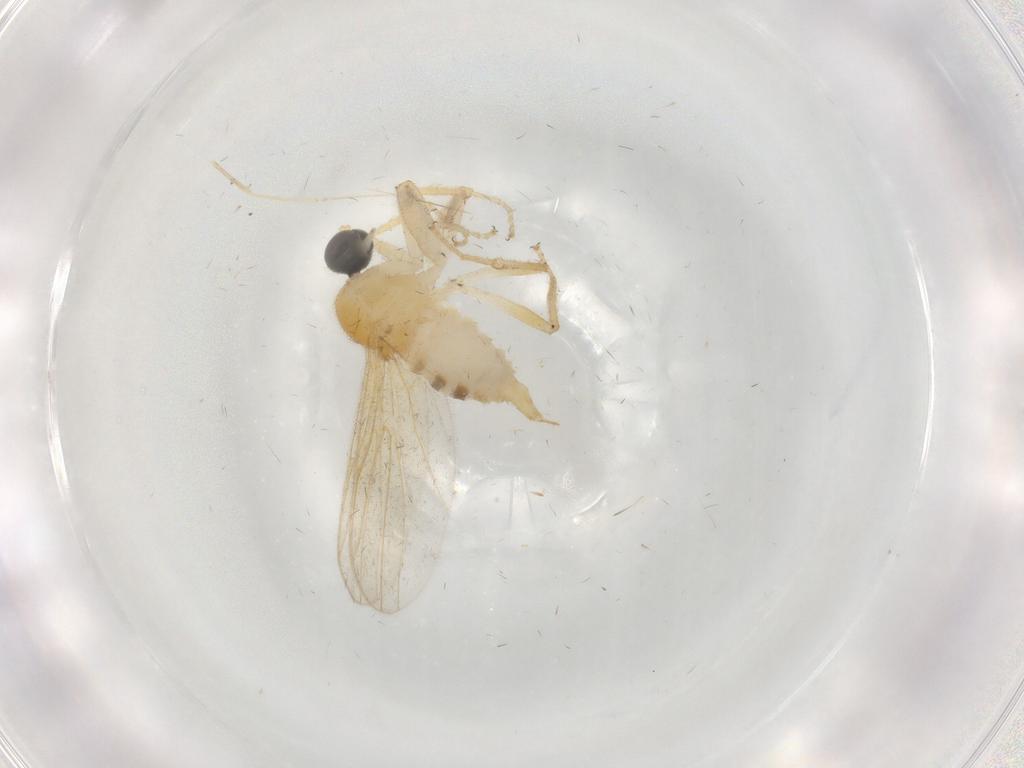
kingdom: Animalia
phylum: Arthropoda
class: Insecta
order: Diptera
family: Cecidomyiidae
